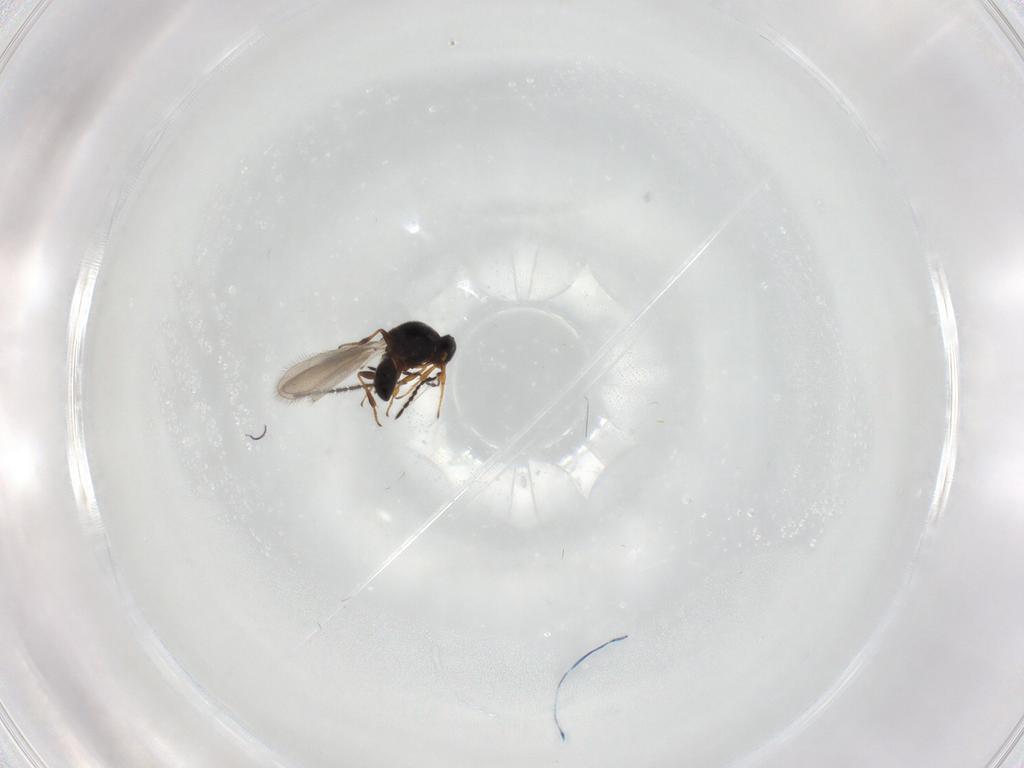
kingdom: Animalia
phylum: Arthropoda
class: Insecta
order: Hymenoptera
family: Platygastridae
